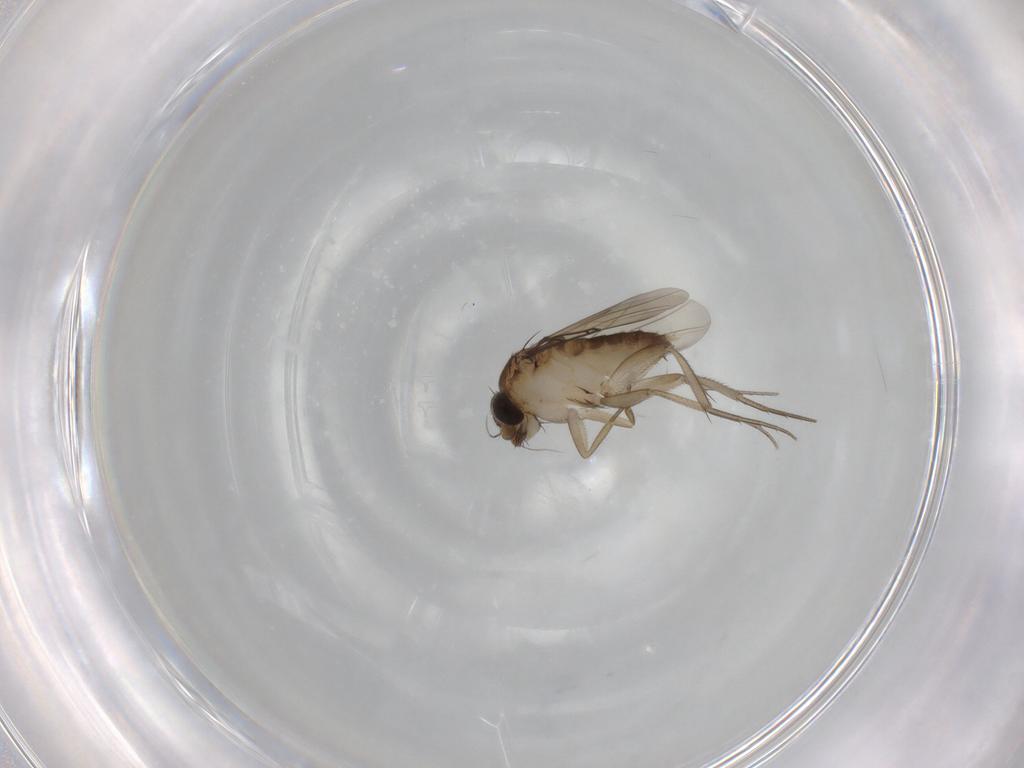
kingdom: Animalia
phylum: Arthropoda
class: Insecta
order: Diptera
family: Phoridae
